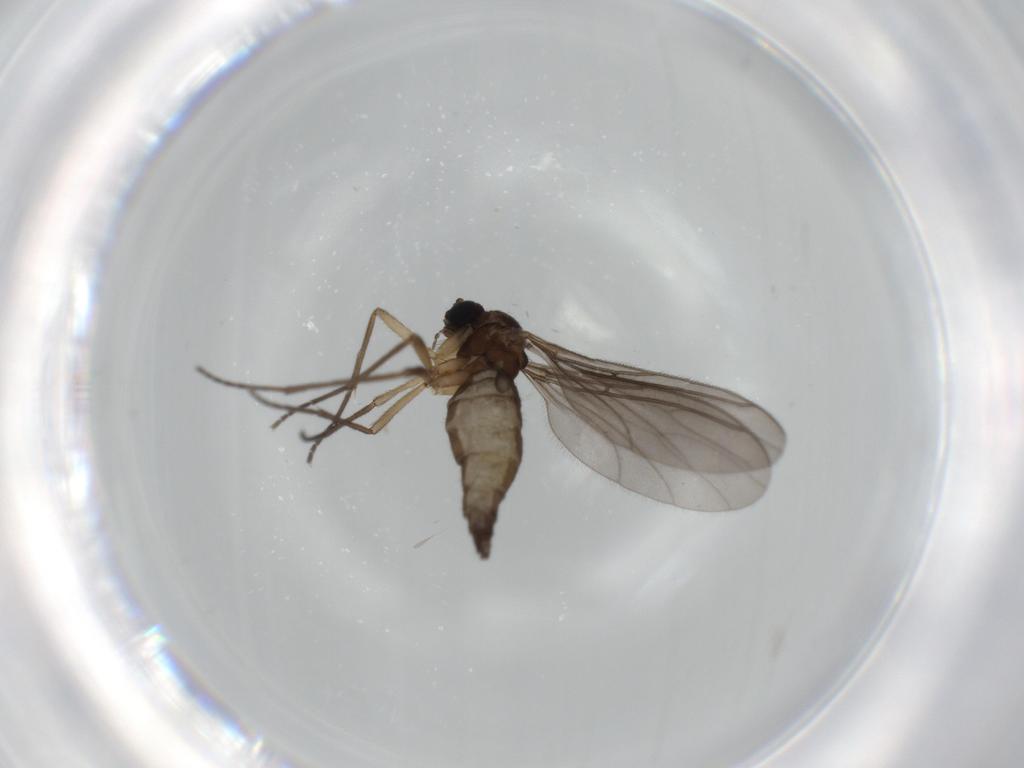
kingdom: Animalia
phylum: Arthropoda
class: Insecta
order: Diptera
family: Sciaridae
